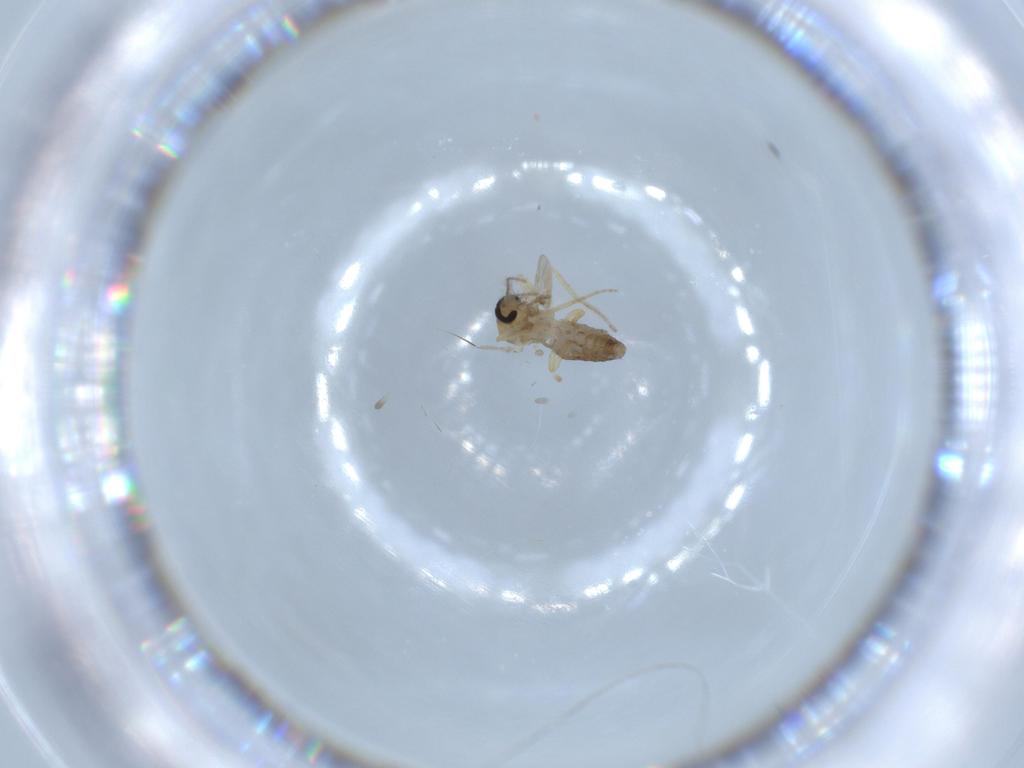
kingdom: Animalia
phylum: Arthropoda
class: Insecta
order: Diptera
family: Ceratopogonidae
